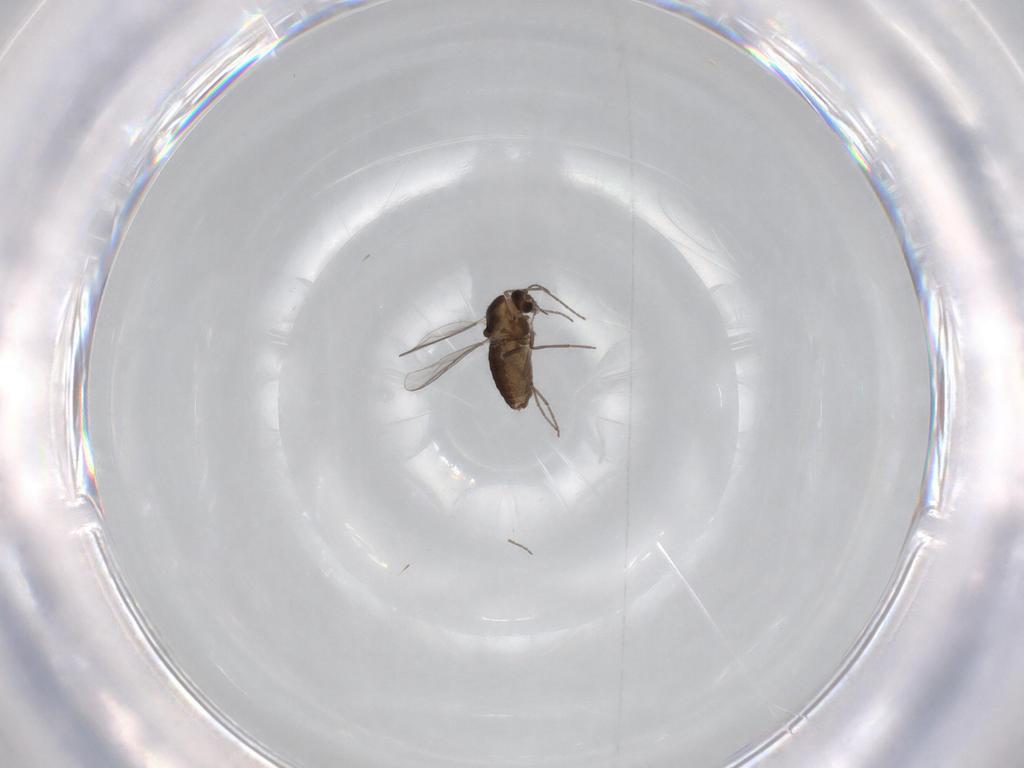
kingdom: Animalia
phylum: Arthropoda
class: Insecta
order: Diptera
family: Chironomidae
